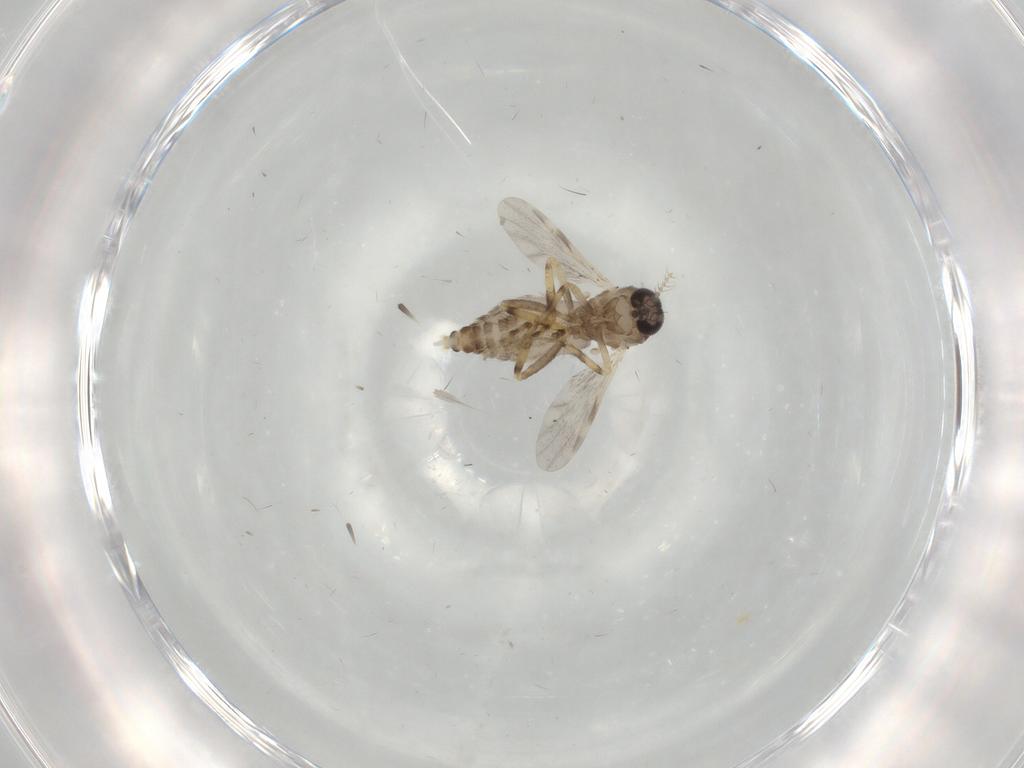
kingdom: Animalia
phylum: Arthropoda
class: Insecta
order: Diptera
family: Ceratopogonidae
